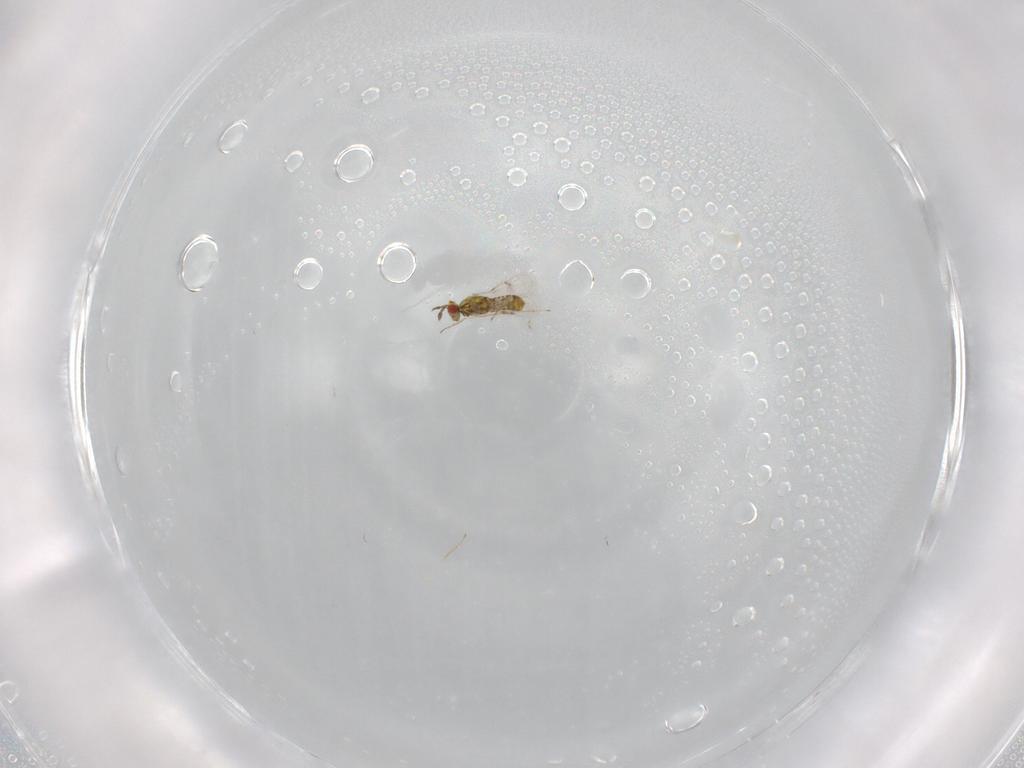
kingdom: Animalia
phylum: Arthropoda
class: Insecta
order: Hymenoptera
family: Eulophidae
